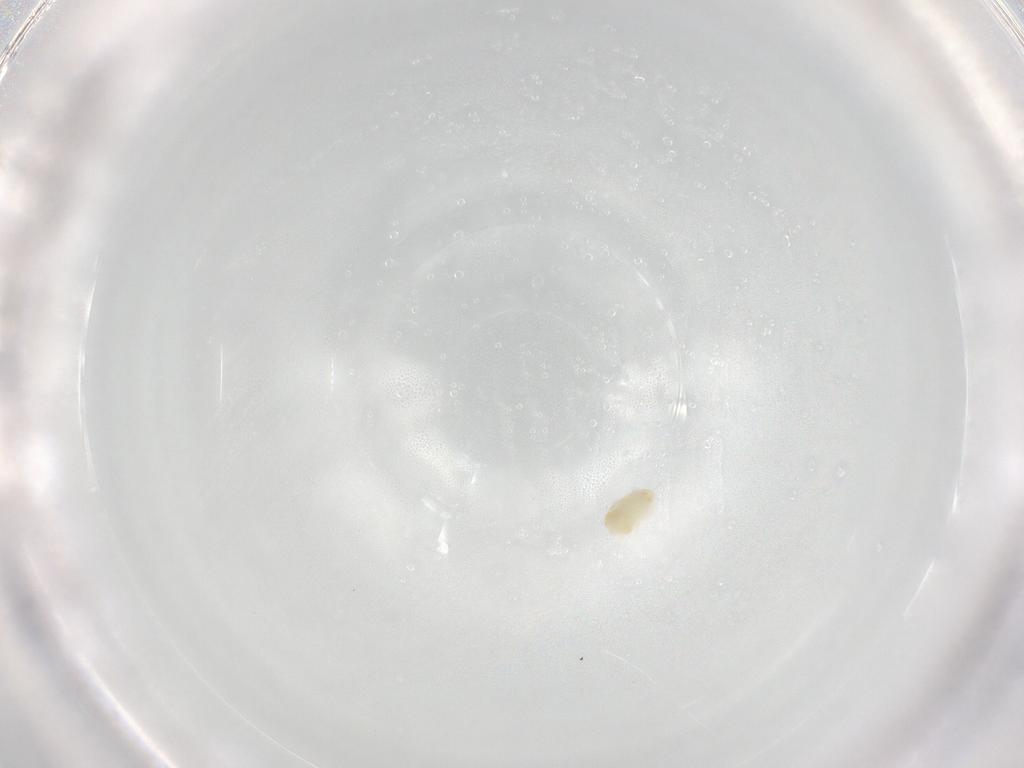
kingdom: Animalia
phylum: Arthropoda
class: Arachnida
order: Trombidiformes
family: Eupodidae
